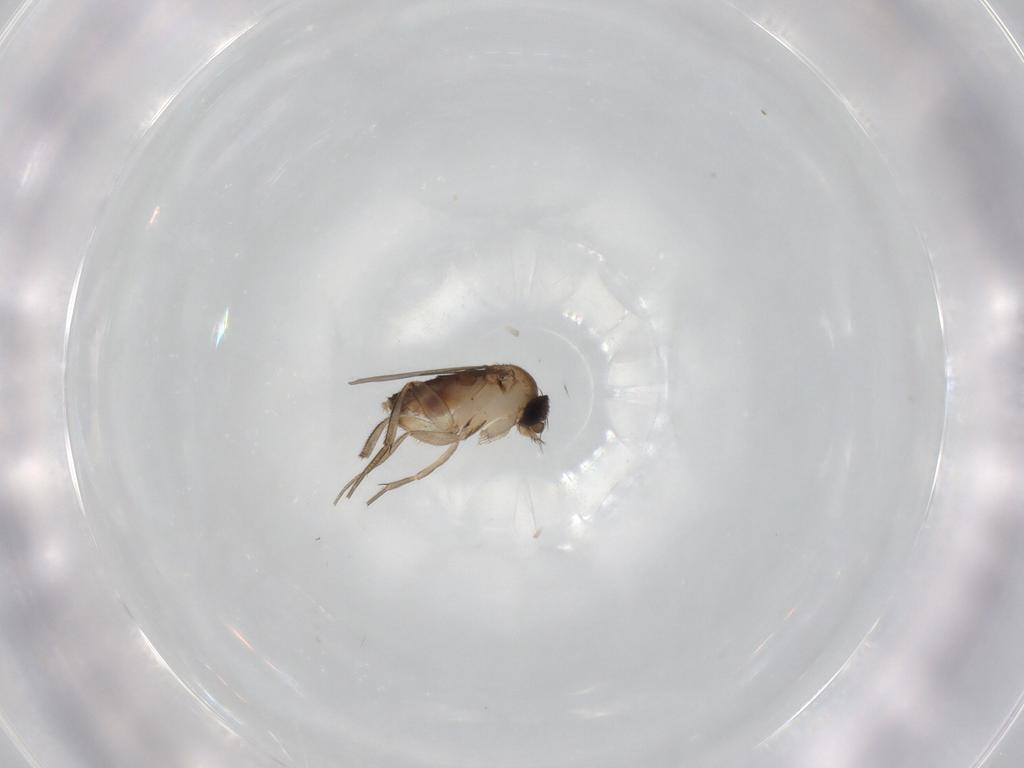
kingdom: Animalia
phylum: Arthropoda
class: Insecta
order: Diptera
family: Phoridae
